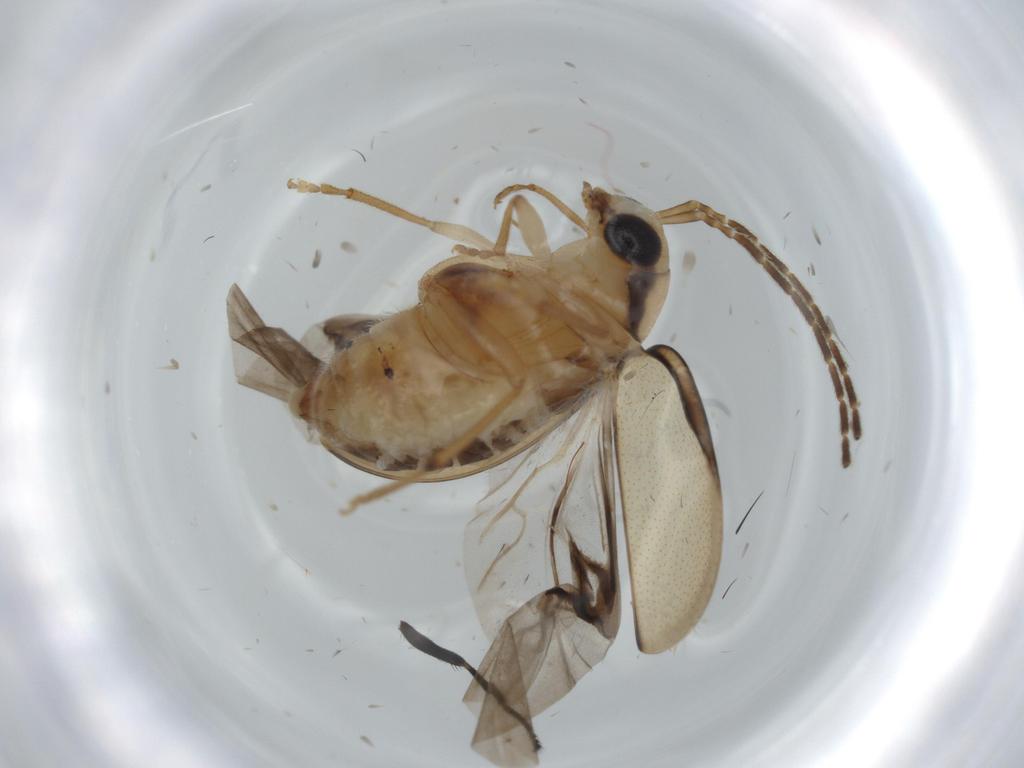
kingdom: Animalia
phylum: Arthropoda
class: Insecta
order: Coleoptera
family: Chrysomelidae
